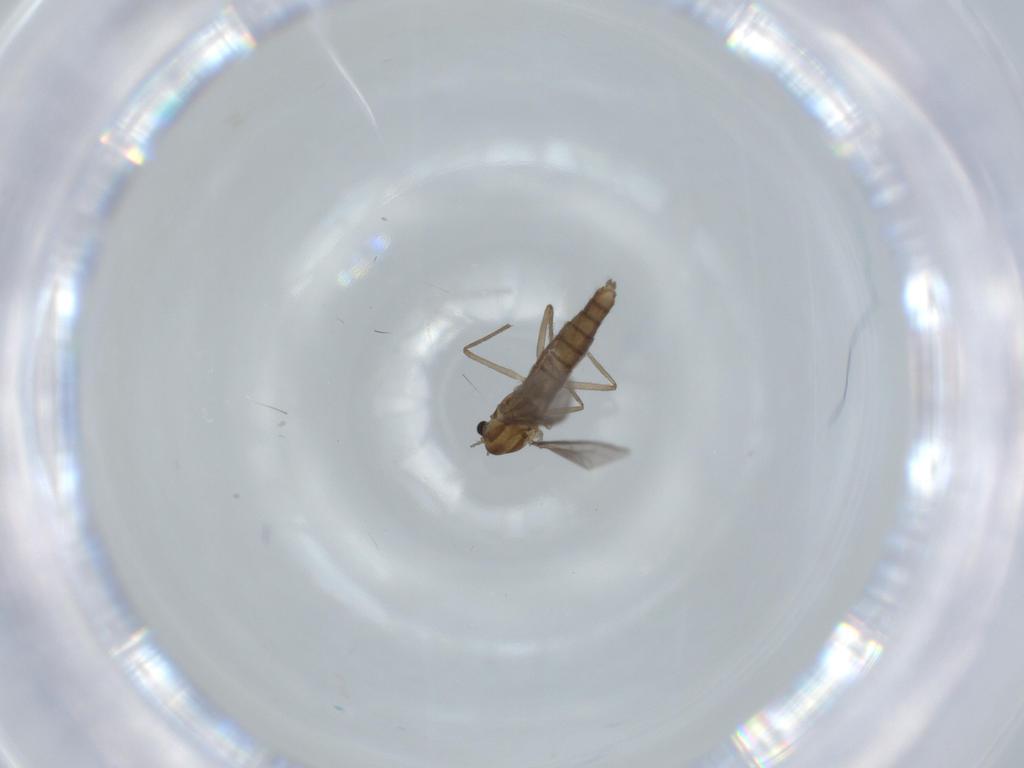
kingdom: Animalia
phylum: Arthropoda
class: Insecta
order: Diptera
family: Chironomidae
